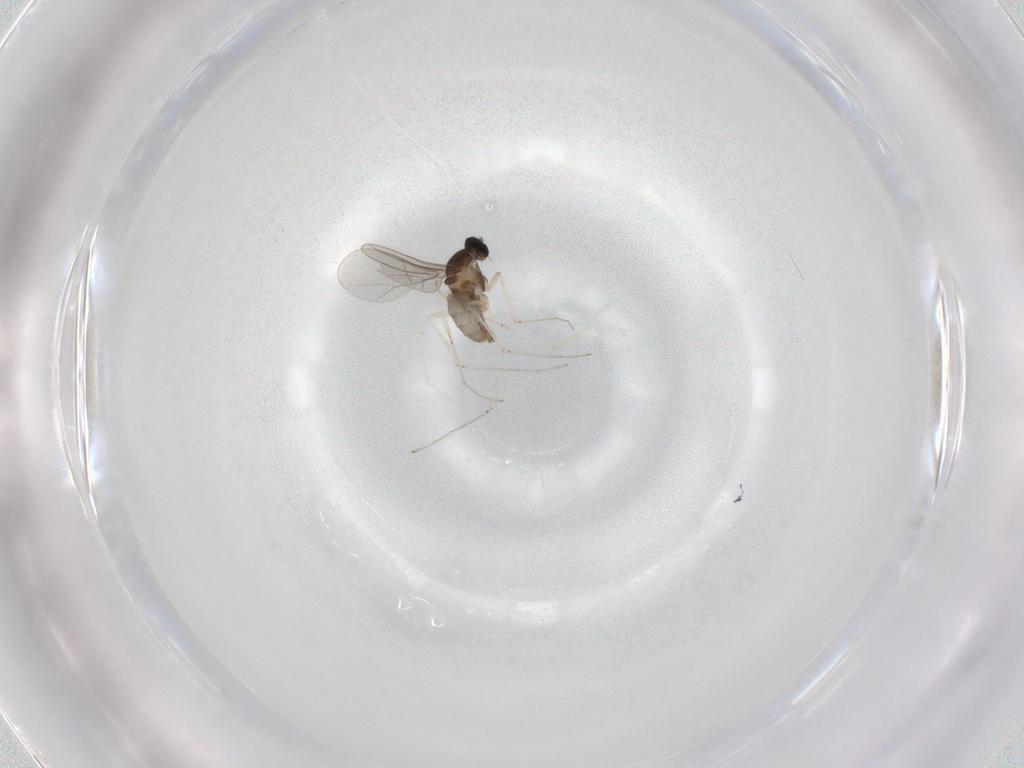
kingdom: Animalia
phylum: Arthropoda
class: Insecta
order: Diptera
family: Cecidomyiidae
